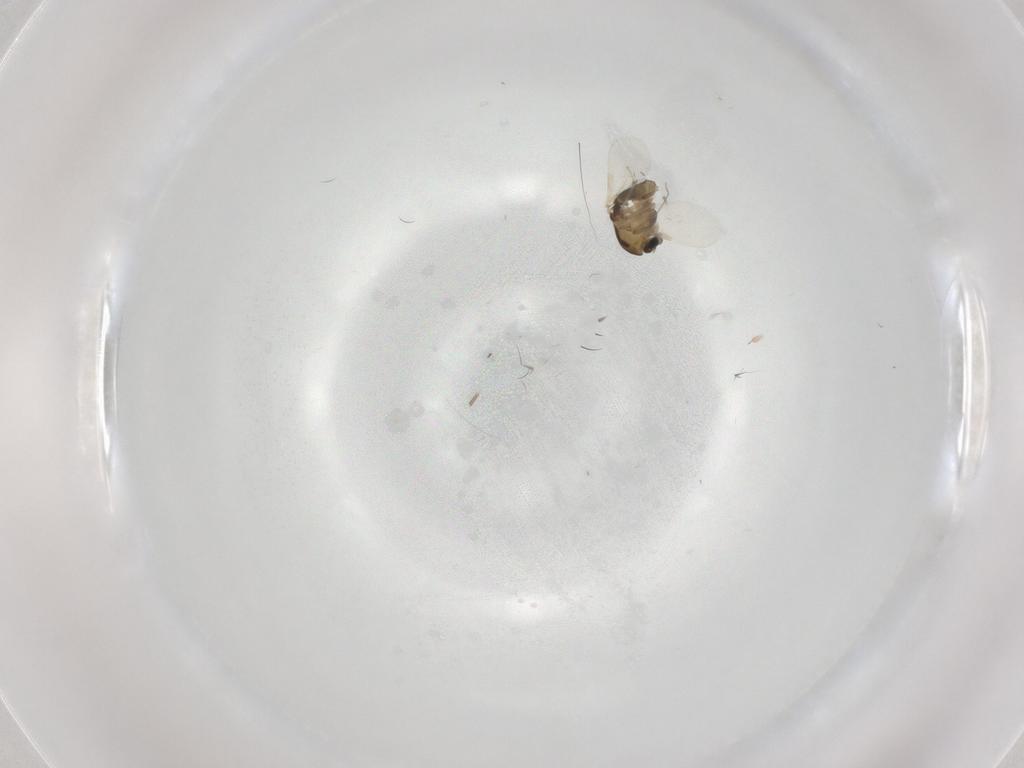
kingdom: Animalia
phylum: Arthropoda
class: Insecta
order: Diptera
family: Chironomidae
